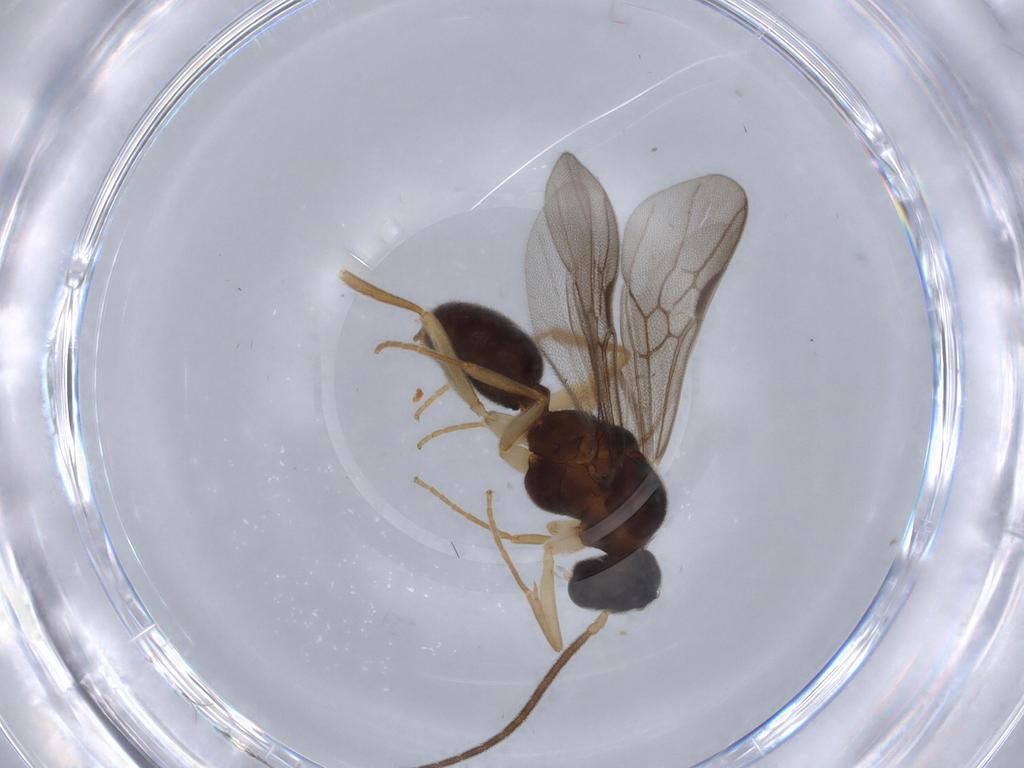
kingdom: Animalia
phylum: Arthropoda
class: Insecta
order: Hymenoptera
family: Formicidae
